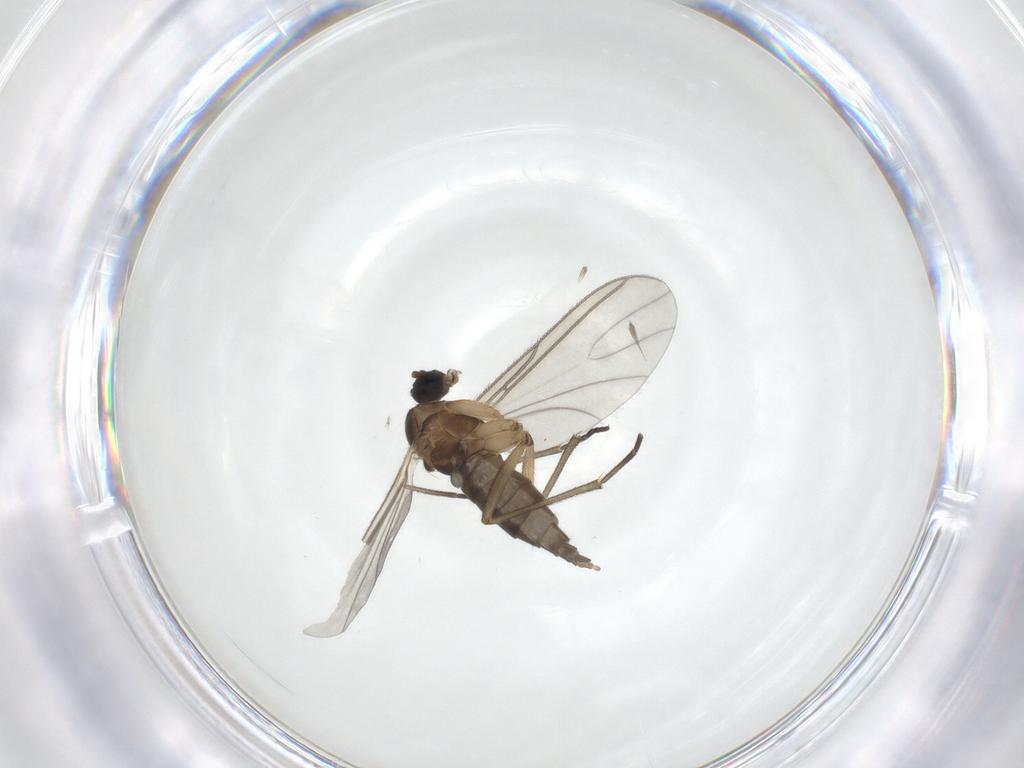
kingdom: Animalia
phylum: Arthropoda
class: Insecta
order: Diptera
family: Sciaridae
